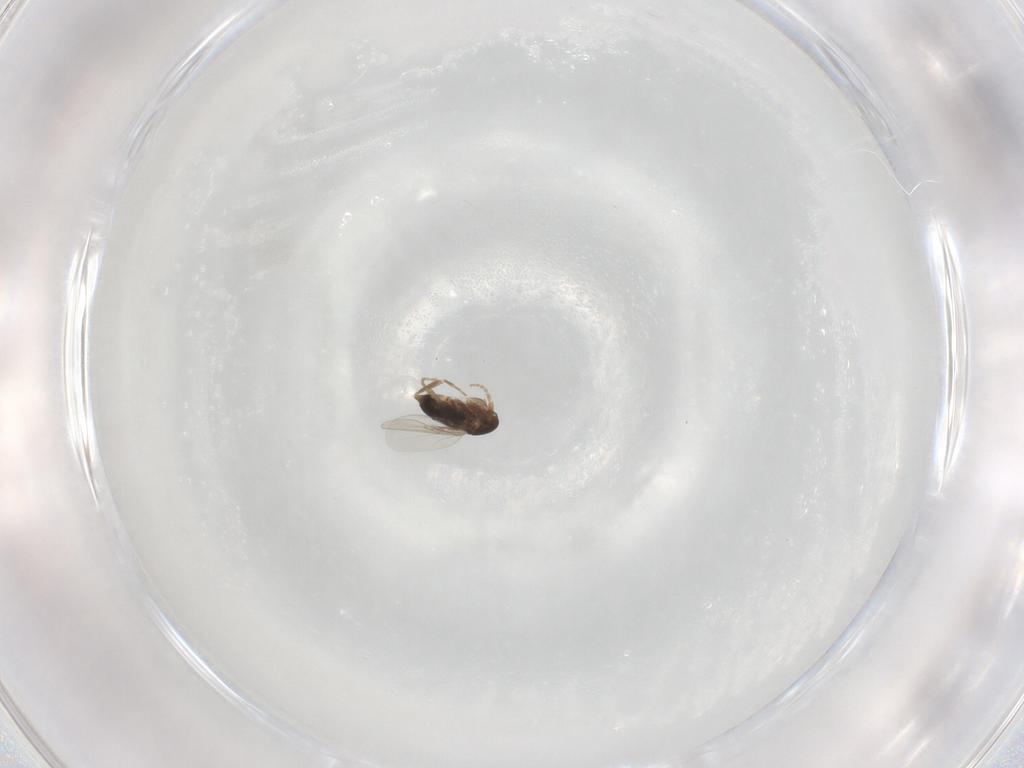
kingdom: Animalia
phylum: Arthropoda
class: Insecta
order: Diptera
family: Phoridae
